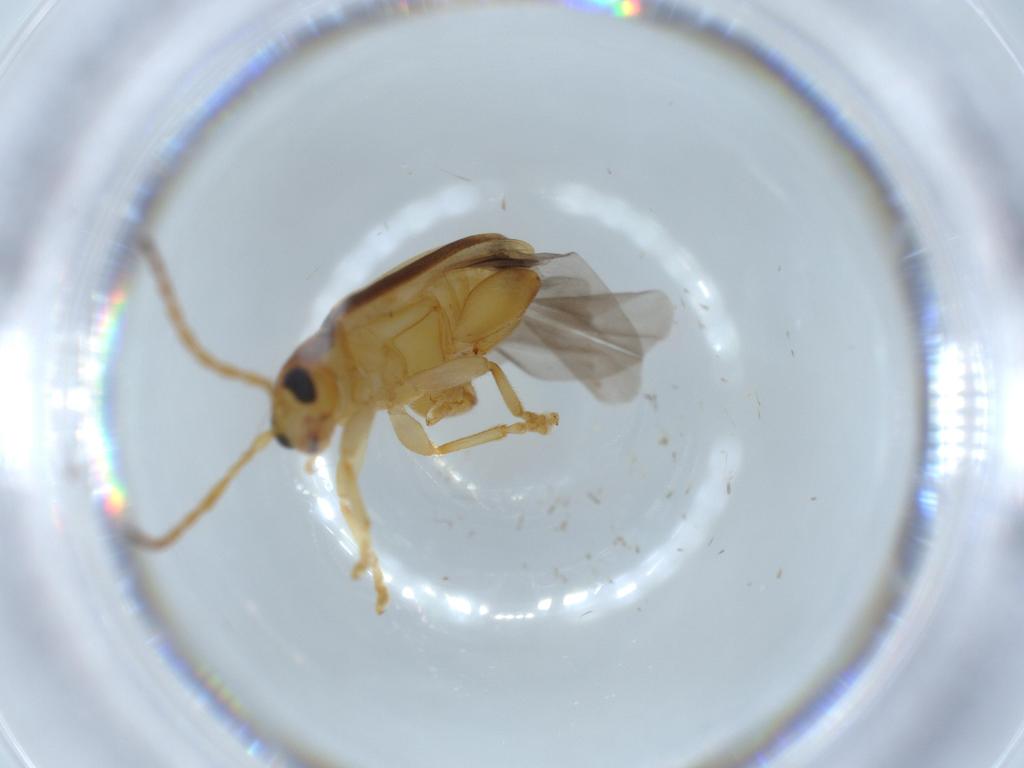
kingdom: Animalia
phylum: Arthropoda
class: Insecta
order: Coleoptera
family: Chrysomelidae
